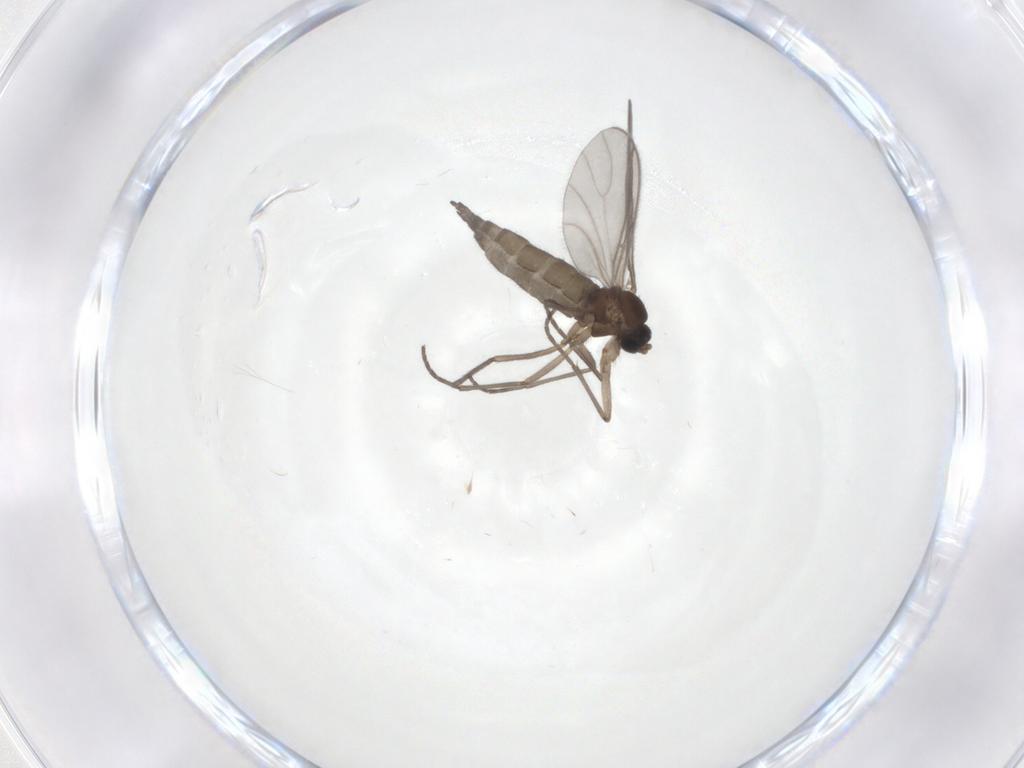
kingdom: Animalia
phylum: Arthropoda
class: Insecta
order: Diptera
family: Sciaridae
